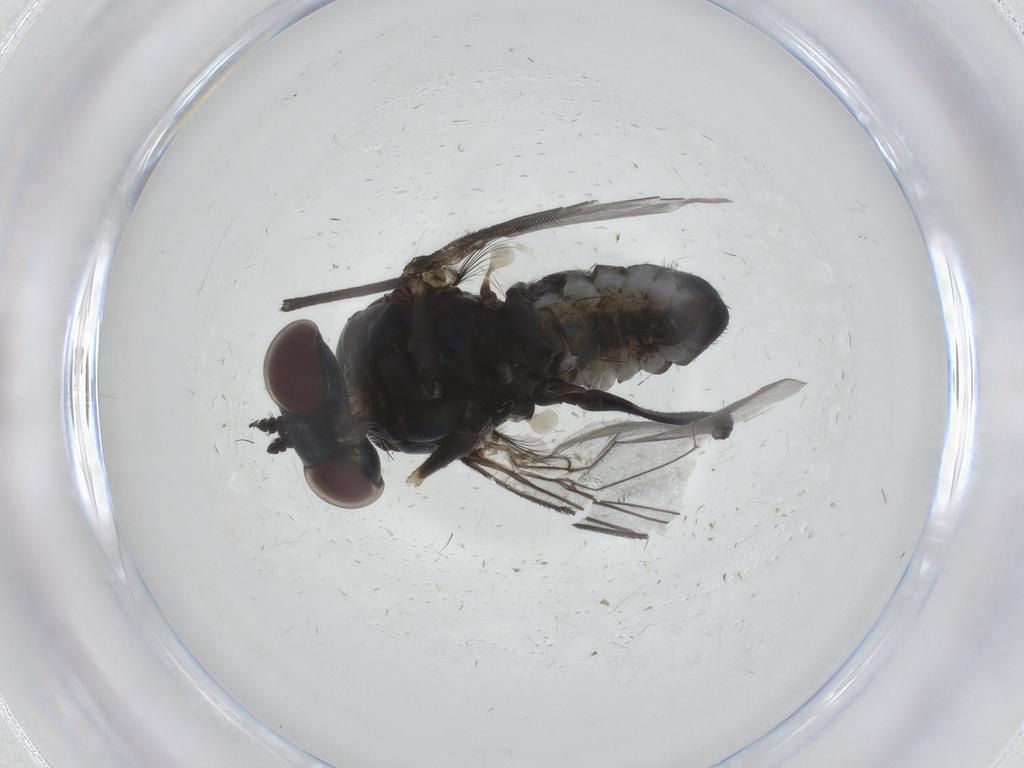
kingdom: Animalia
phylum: Arthropoda
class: Insecta
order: Diptera
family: Dolichopodidae
